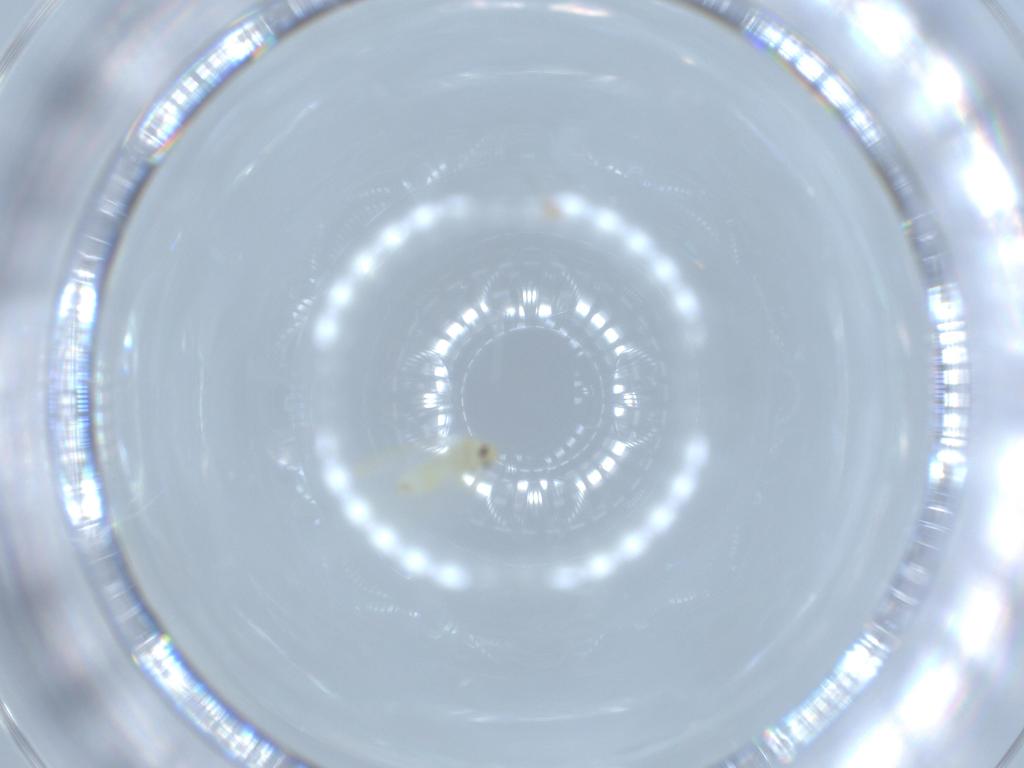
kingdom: Animalia
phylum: Arthropoda
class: Insecta
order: Hemiptera
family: Aleyrodidae
